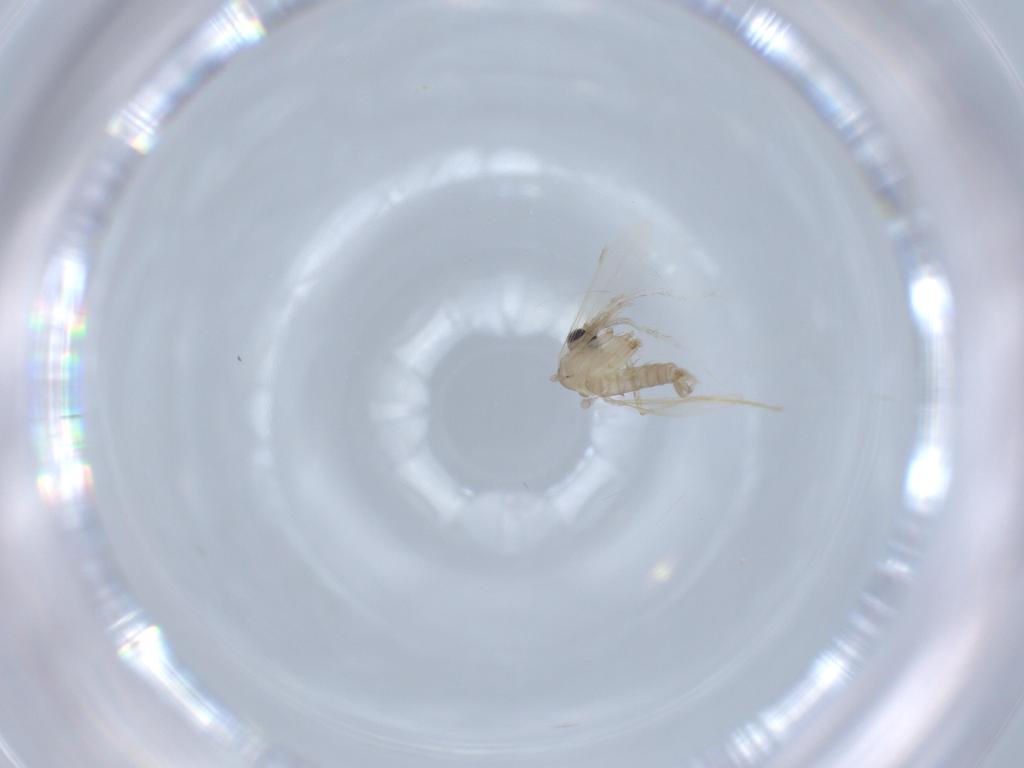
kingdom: Animalia
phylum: Arthropoda
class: Insecta
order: Diptera
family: Psychodidae
